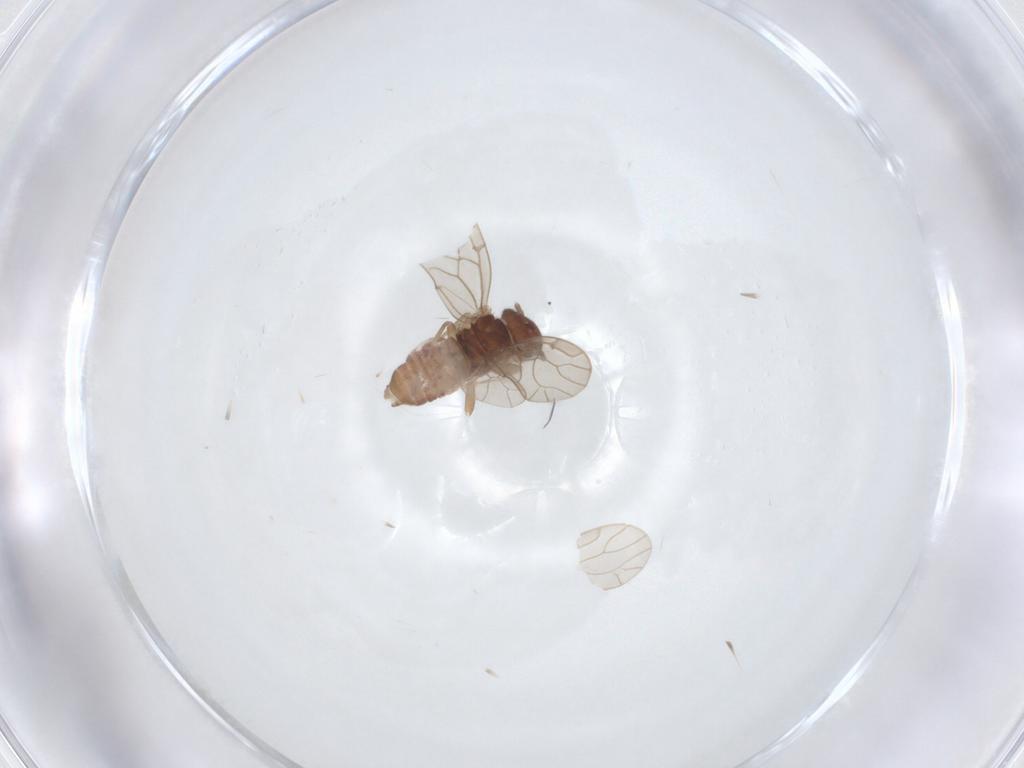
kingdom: Animalia
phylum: Arthropoda
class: Insecta
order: Psocodea
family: Ectopsocidae
